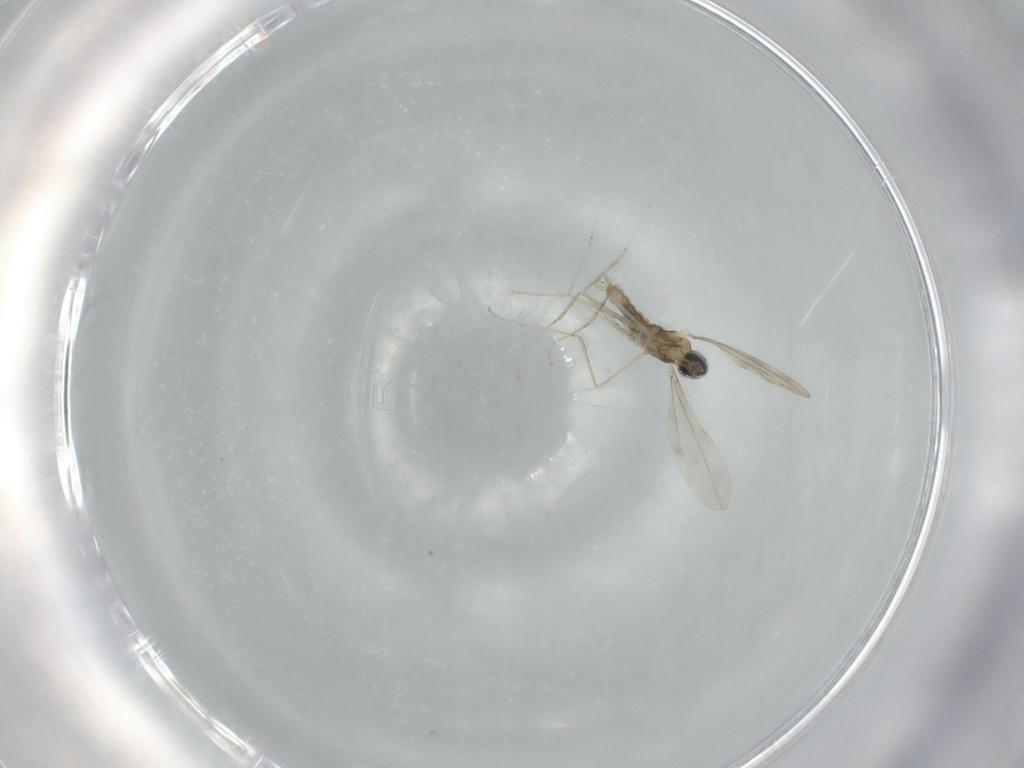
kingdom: Animalia
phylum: Arthropoda
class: Insecta
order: Diptera
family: Cecidomyiidae
